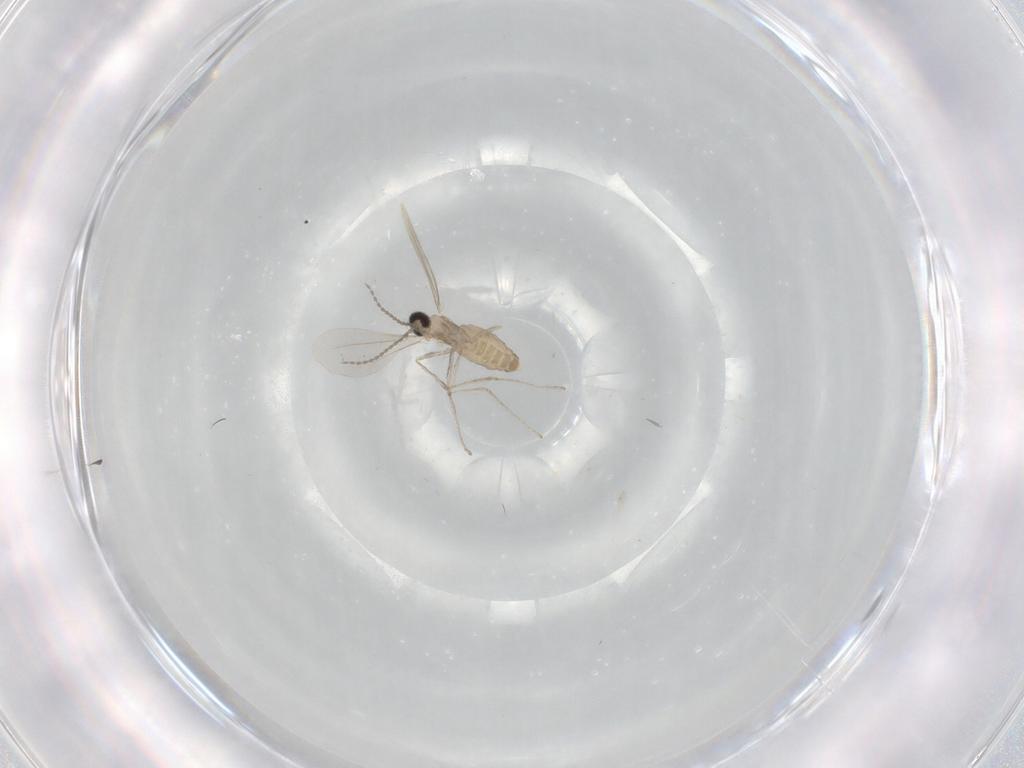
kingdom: Animalia
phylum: Arthropoda
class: Insecta
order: Diptera
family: Cecidomyiidae
